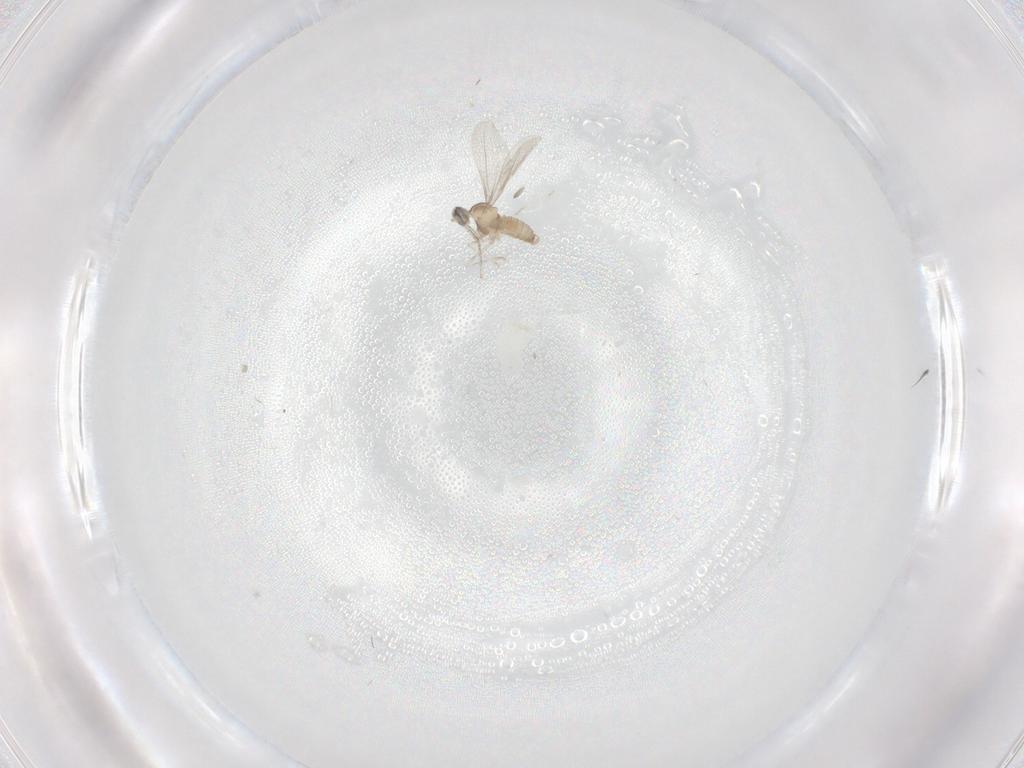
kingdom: Animalia
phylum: Arthropoda
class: Insecta
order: Diptera
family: Cecidomyiidae
